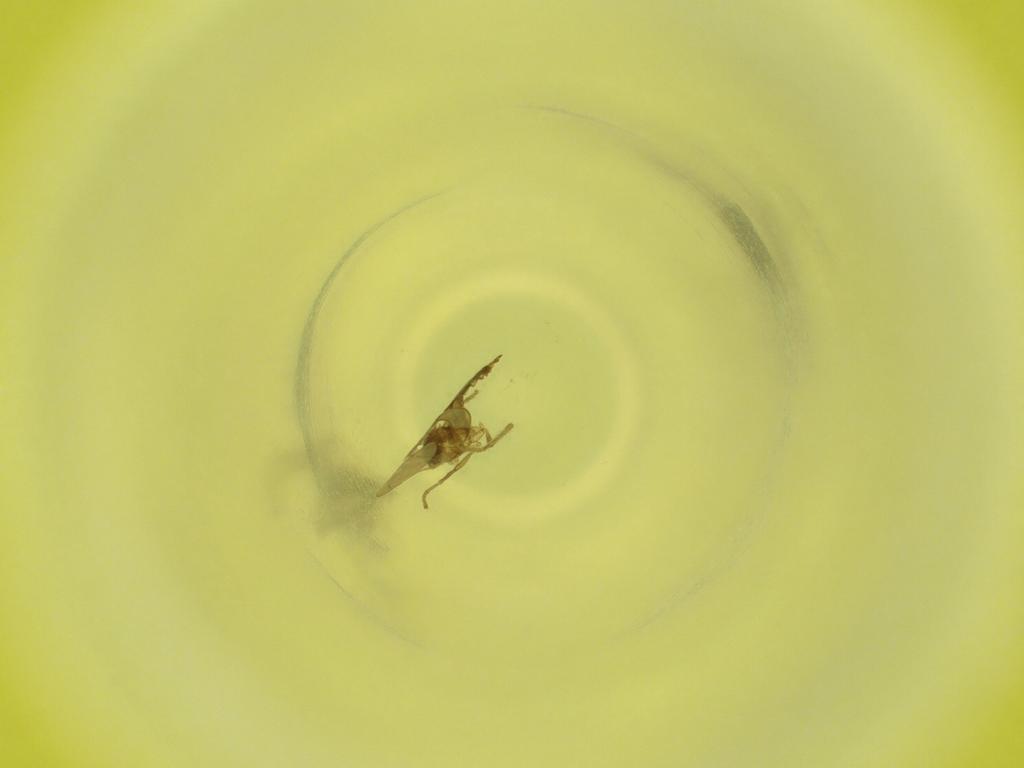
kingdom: Animalia
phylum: Arthropoda
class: Insecta
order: Diptera
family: Cecidomyiidae
